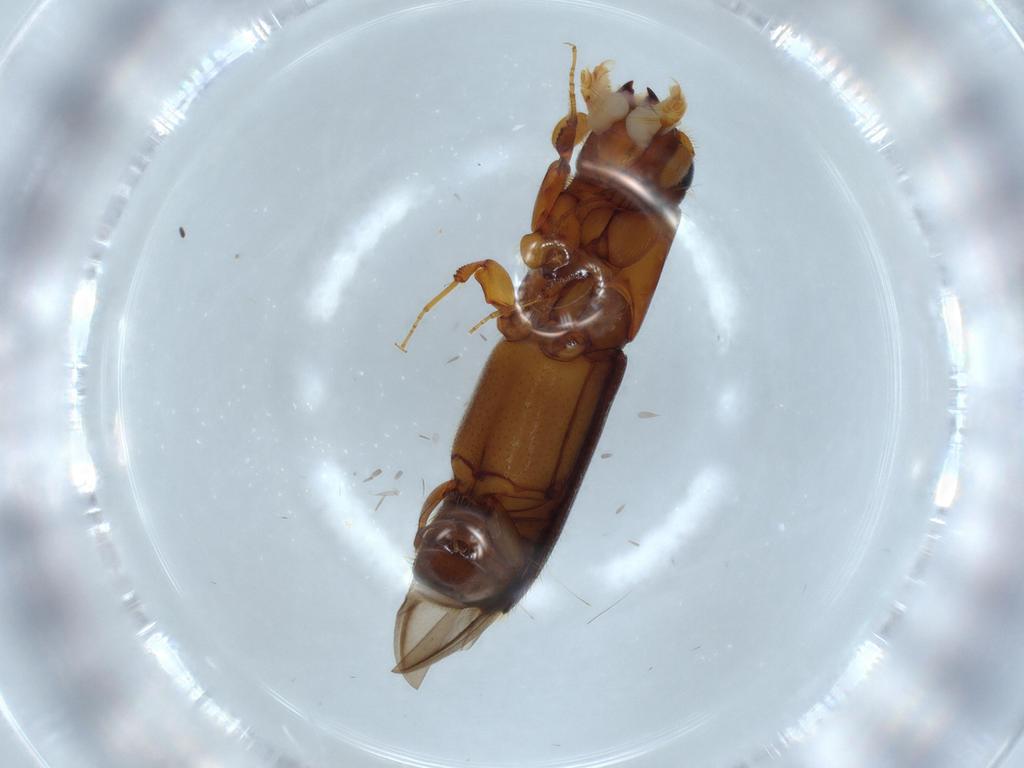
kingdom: Animalia
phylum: Arthropoda
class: Insecta
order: Coleoptera
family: Curculionidae
